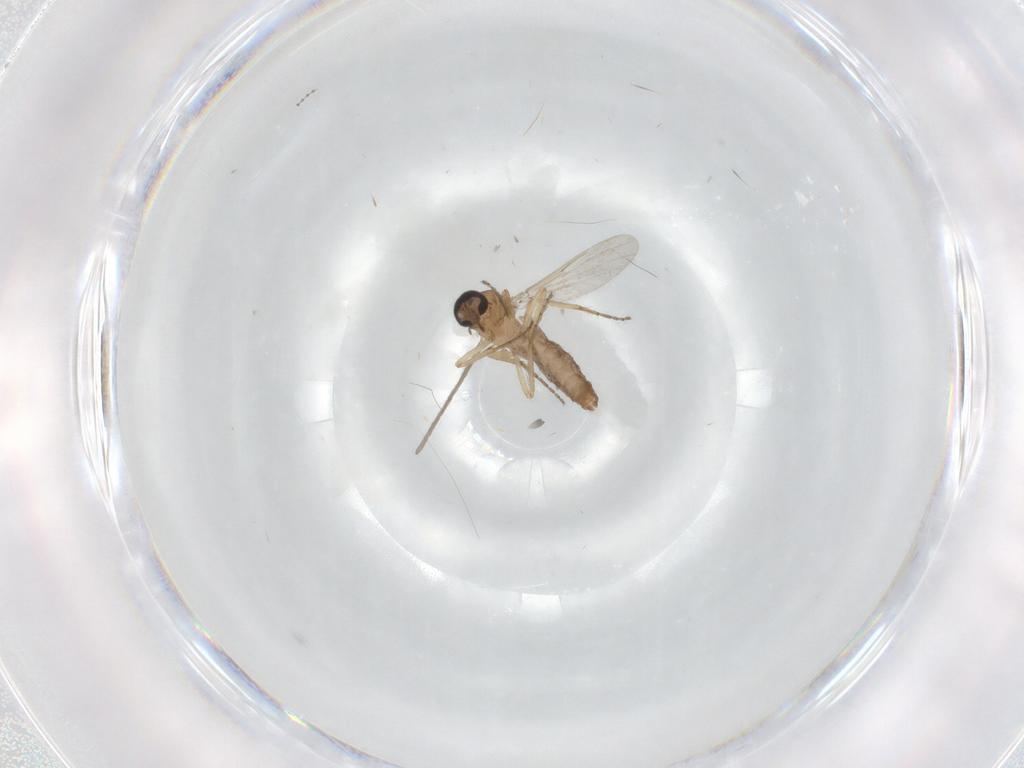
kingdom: Animalia
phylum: Arthropoda
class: Insecta
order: Diptera
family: Ceratopogonidae
